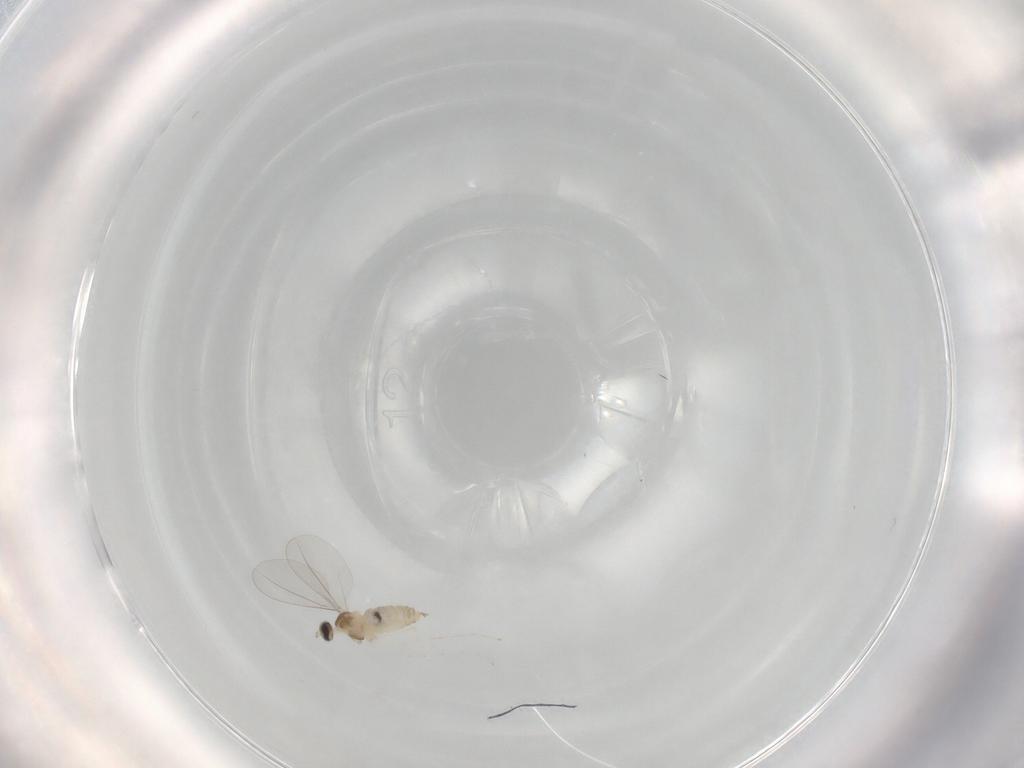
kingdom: Animalia
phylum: Arthropoda
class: Insecta
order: Diptera
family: Cecidomyiidae
